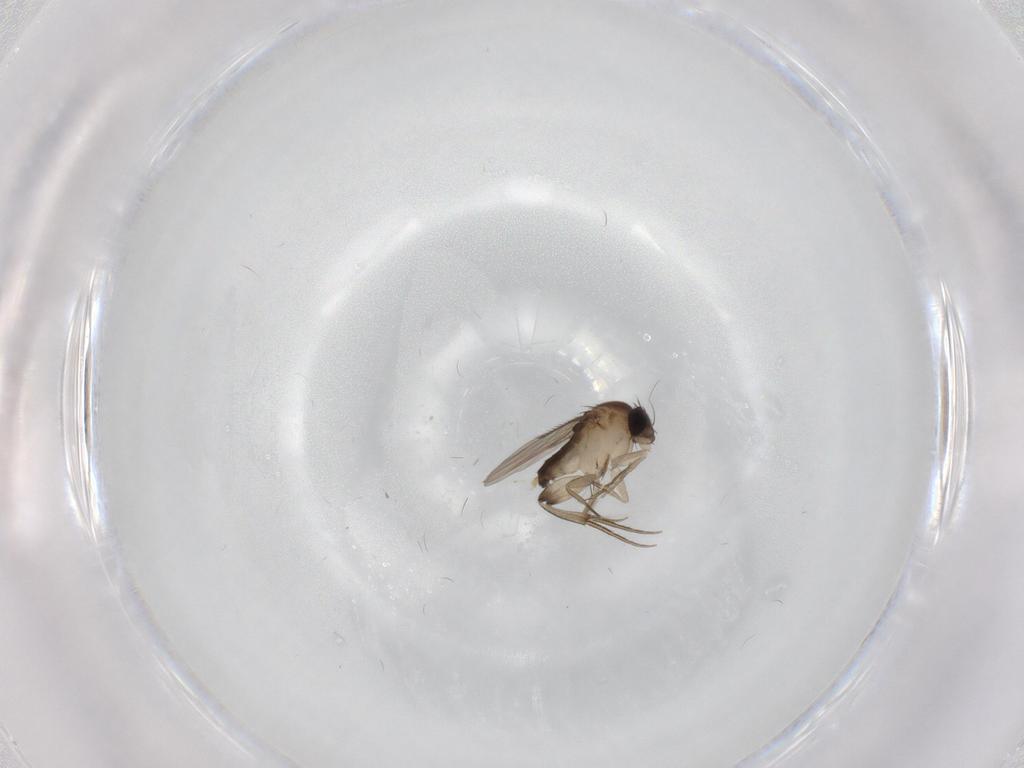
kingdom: Animalia
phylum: Arthropoda
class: Insecta
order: Diptera
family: Phoridae
